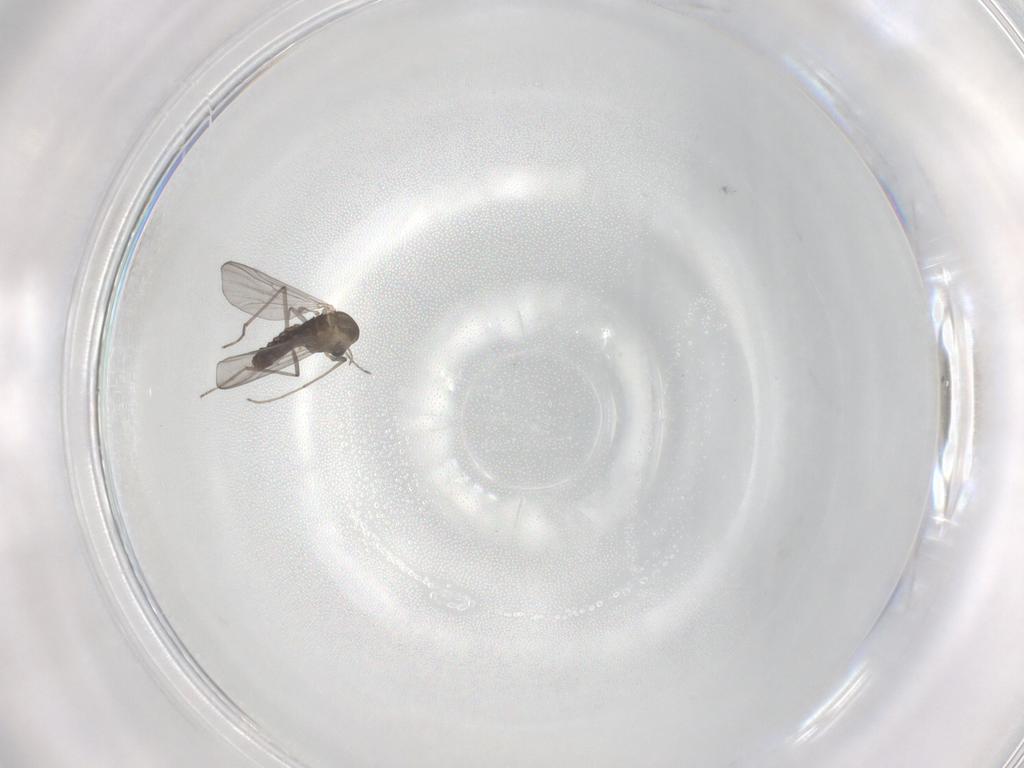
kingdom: Animalia
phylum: Arthropoda
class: Insecta
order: Diptera
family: Mycetophilidae
